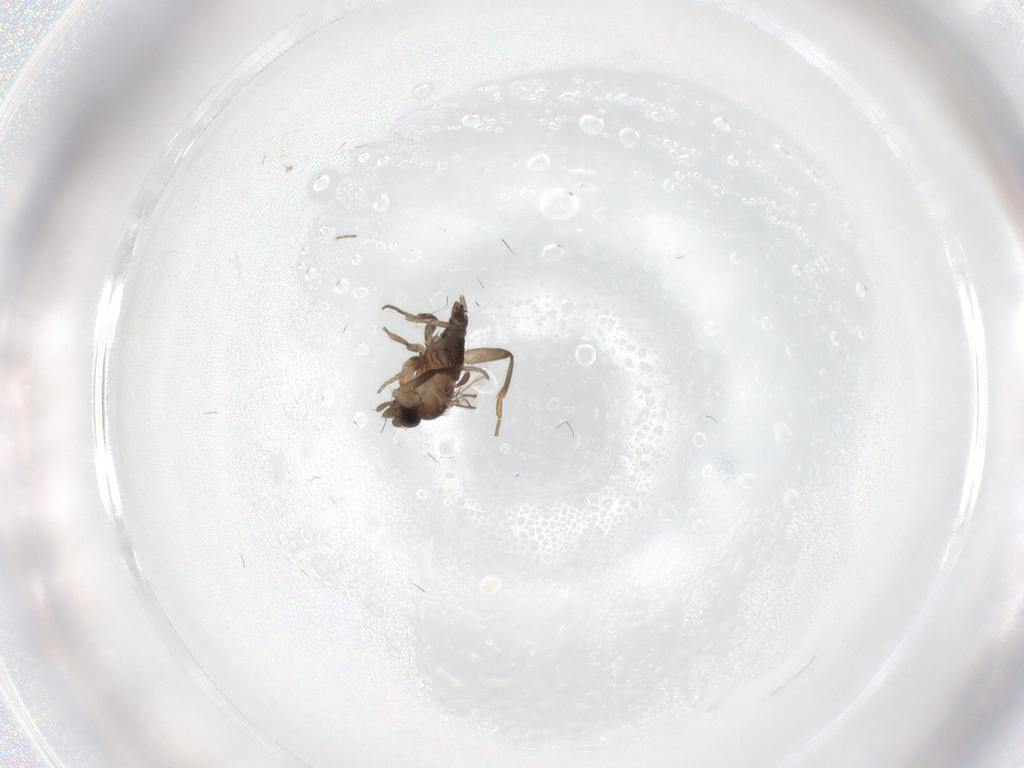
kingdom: Animalia
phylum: Arthropoda
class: Insecta
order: Diptera
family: Phoridae
